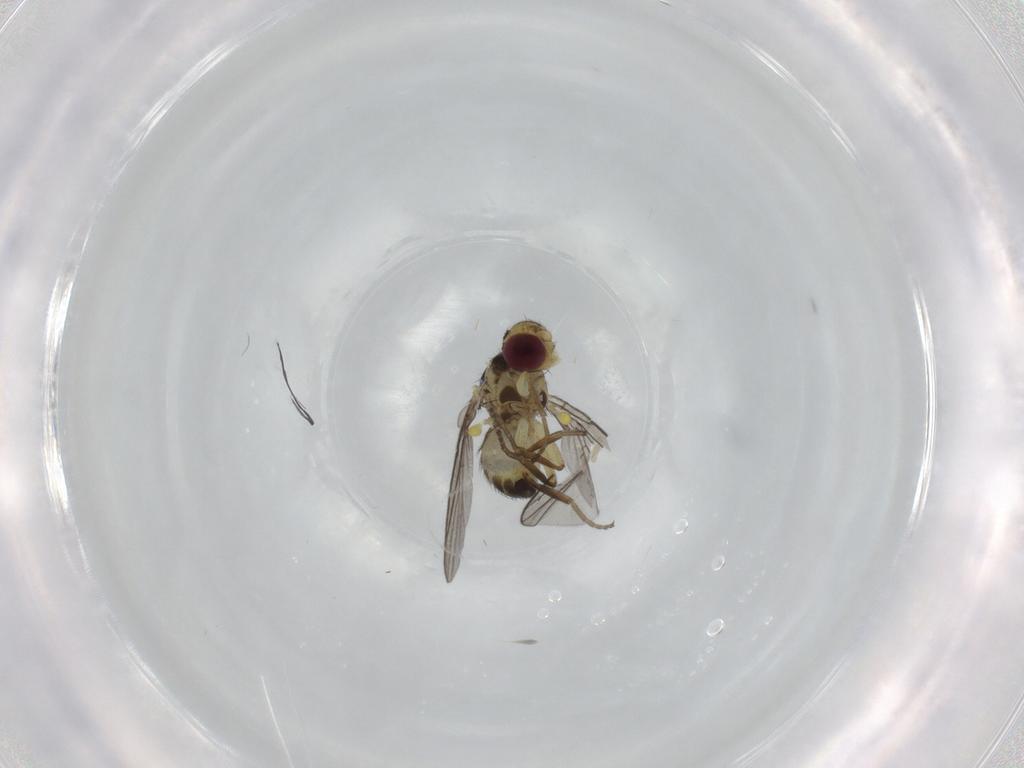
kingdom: Animalia
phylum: Arthropoda
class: Insecta
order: Diptera
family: Agromyzidae
